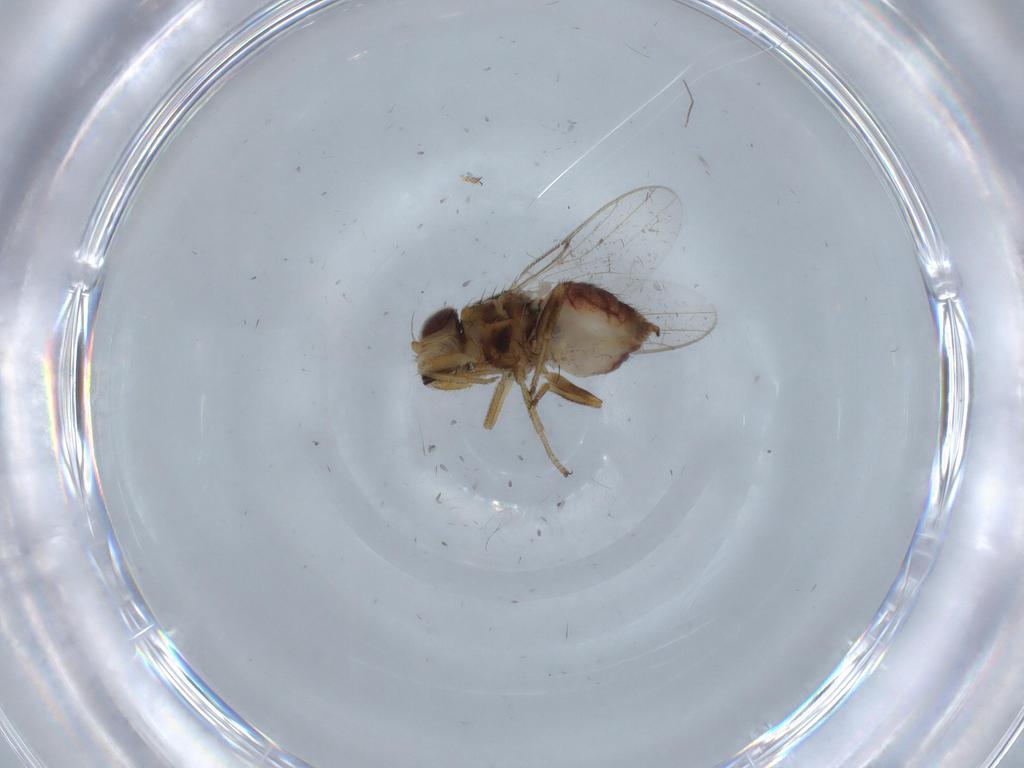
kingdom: Animalia
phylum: Arthropoda
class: Insecta
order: Diptera
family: Chloropidae
